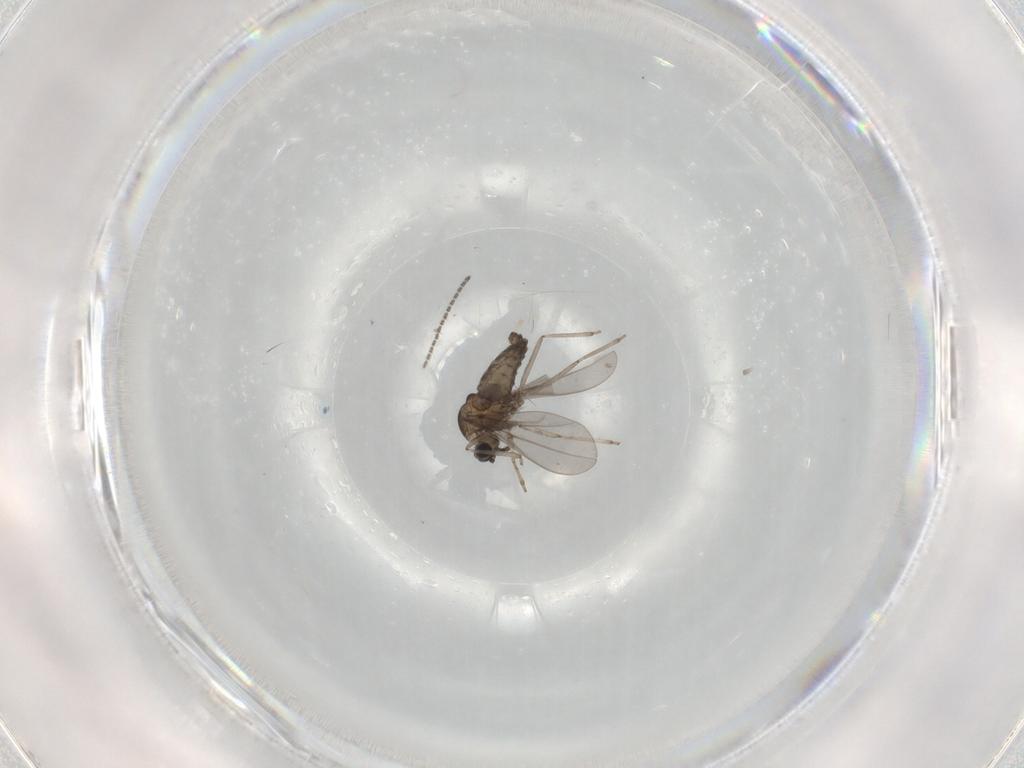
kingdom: Animalia
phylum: Arthropoda
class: Insecta
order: Diptera
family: Cecidomyiidae
